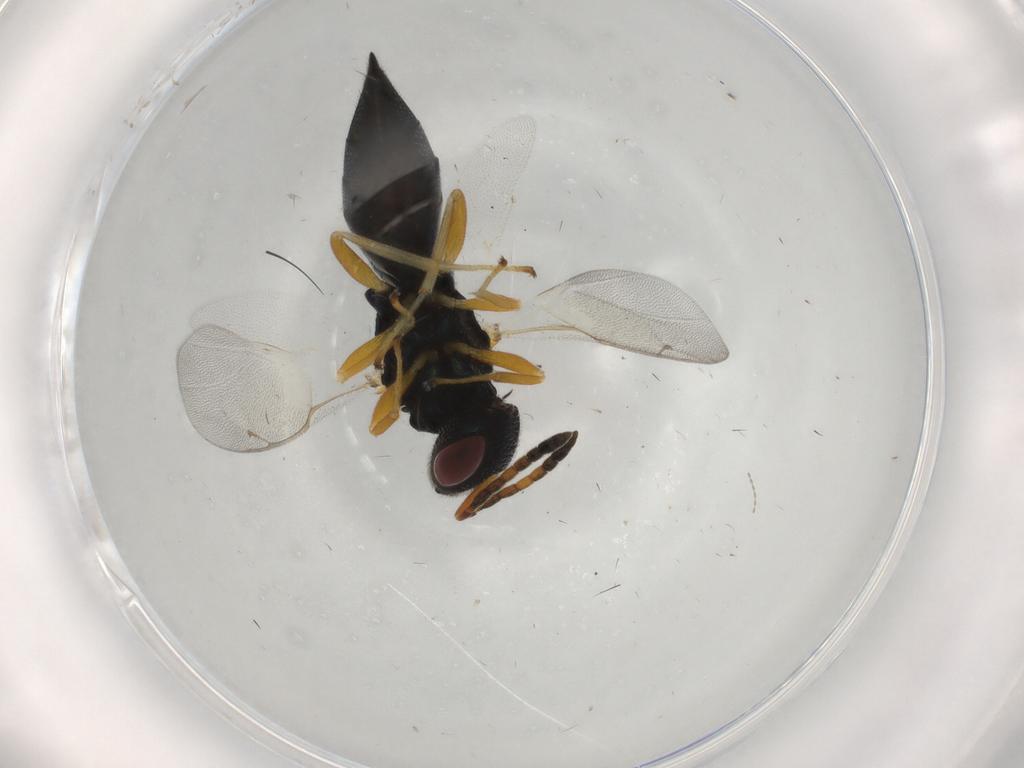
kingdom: Animalia
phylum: Arthropoda
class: Insecta
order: Hymenoptera
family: Pteromalidae
